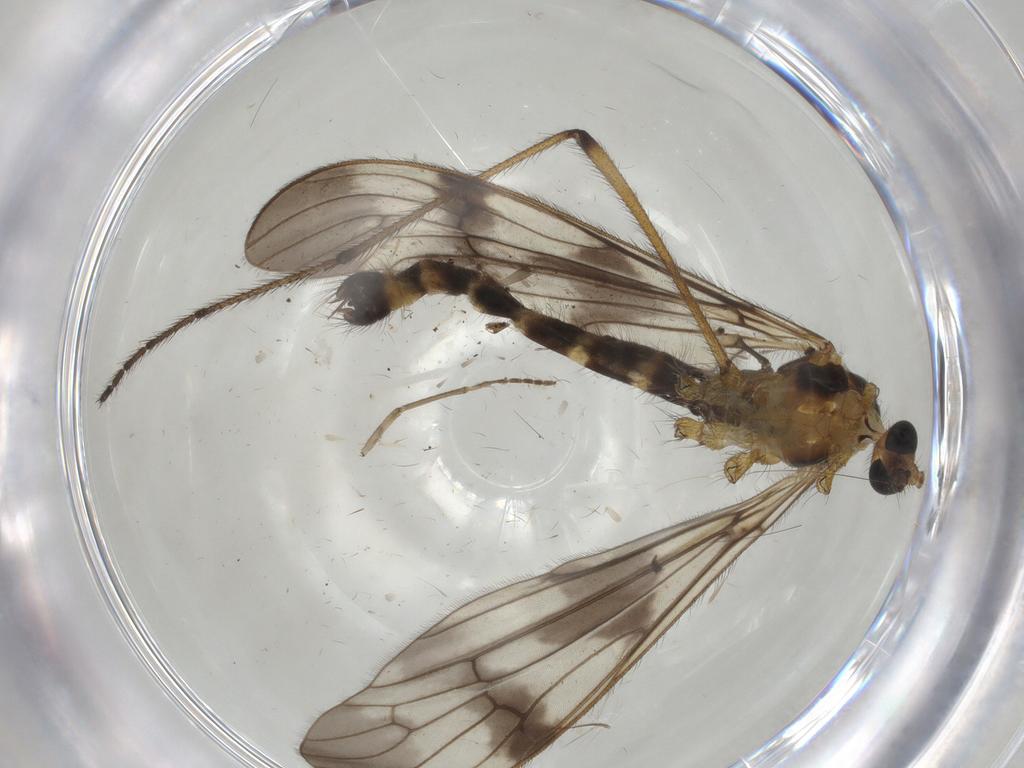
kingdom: Animalia
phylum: Arthropoda
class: Insecta
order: Diptera
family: Limoniidae
